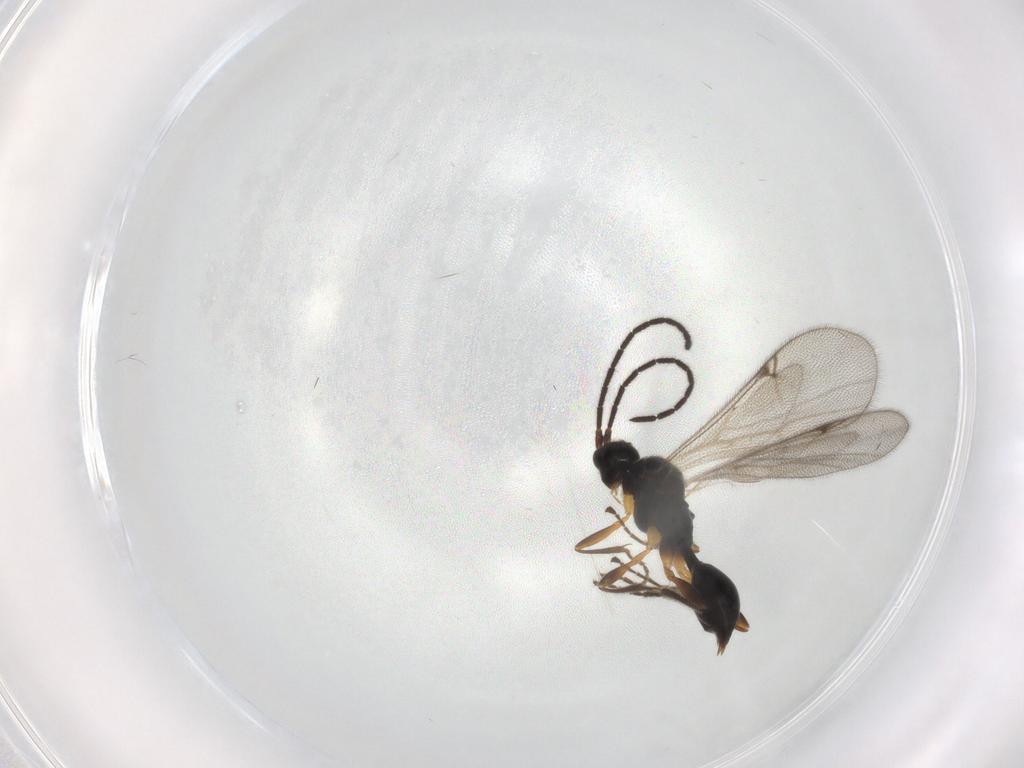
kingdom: Animalia
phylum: Arthropoda
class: Insecta
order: Hymenoptera
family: Proctotrupidae
